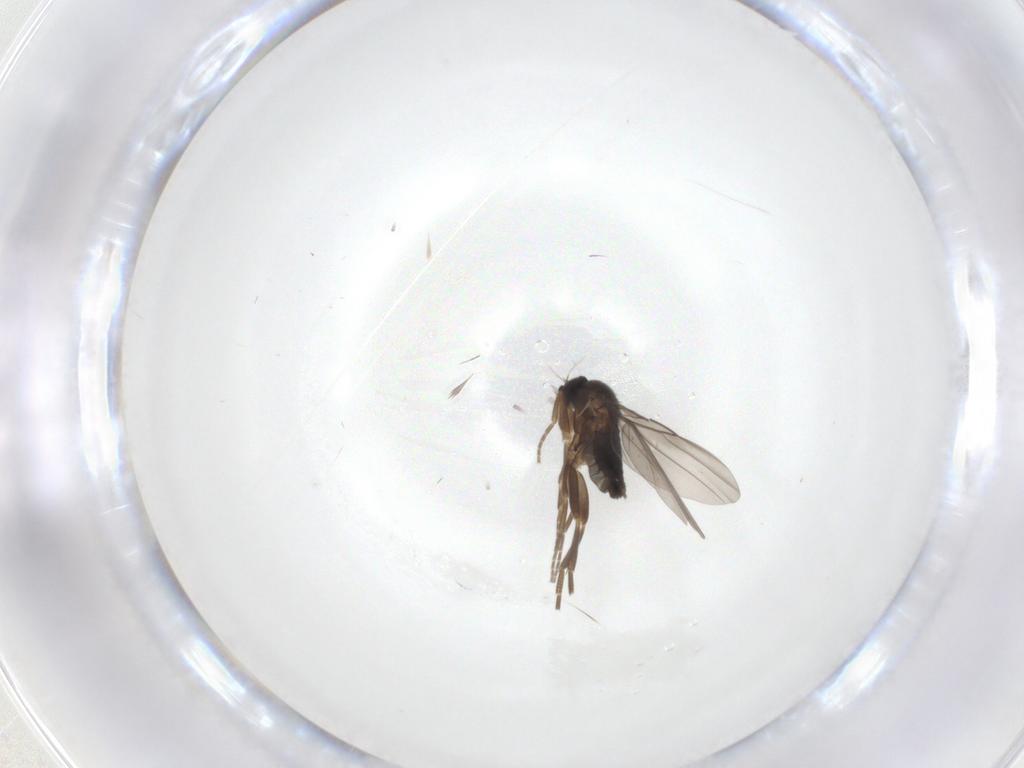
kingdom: Animalia
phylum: Arthropoda
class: Insecta
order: Diptera
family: Phoridae
